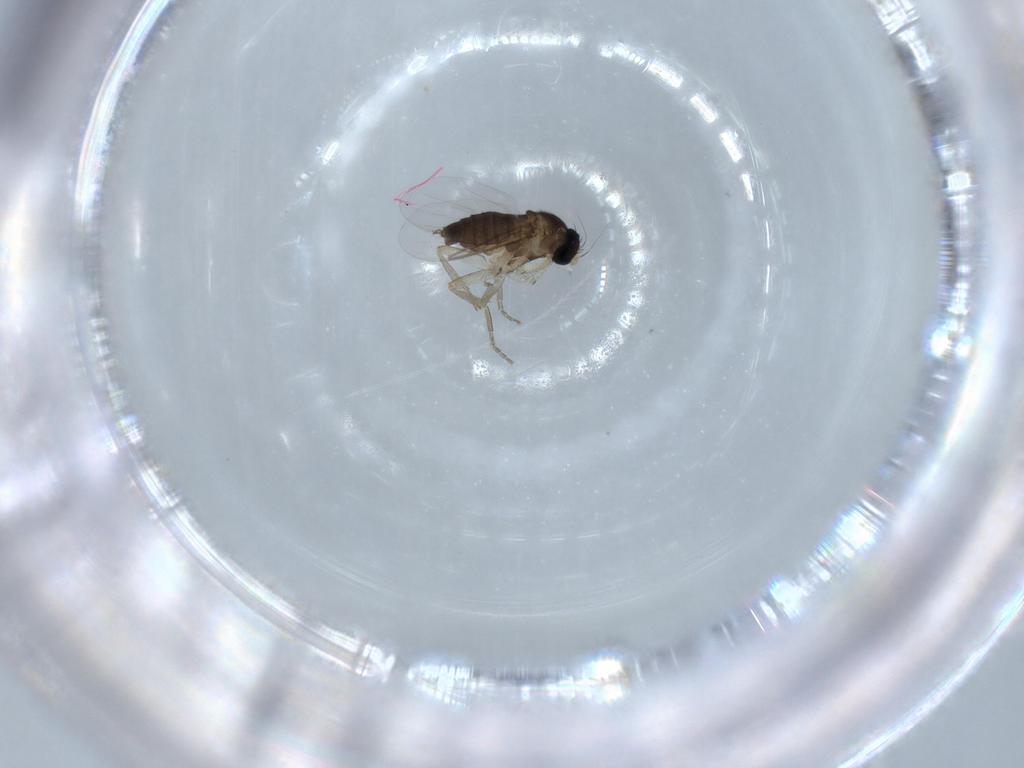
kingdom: Animalia
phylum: Arthropoda
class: Insecta
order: Diptera
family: Phoridae
